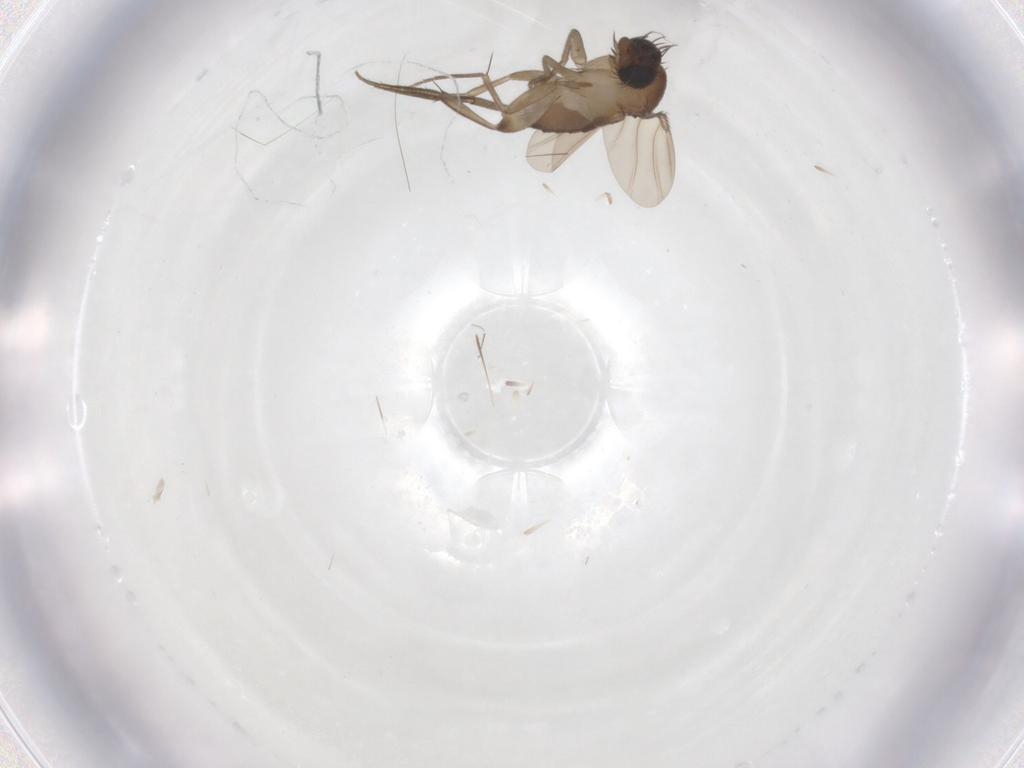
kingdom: Animalia
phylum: Arthropoda
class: Insecta
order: Diptera
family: Phoridae
